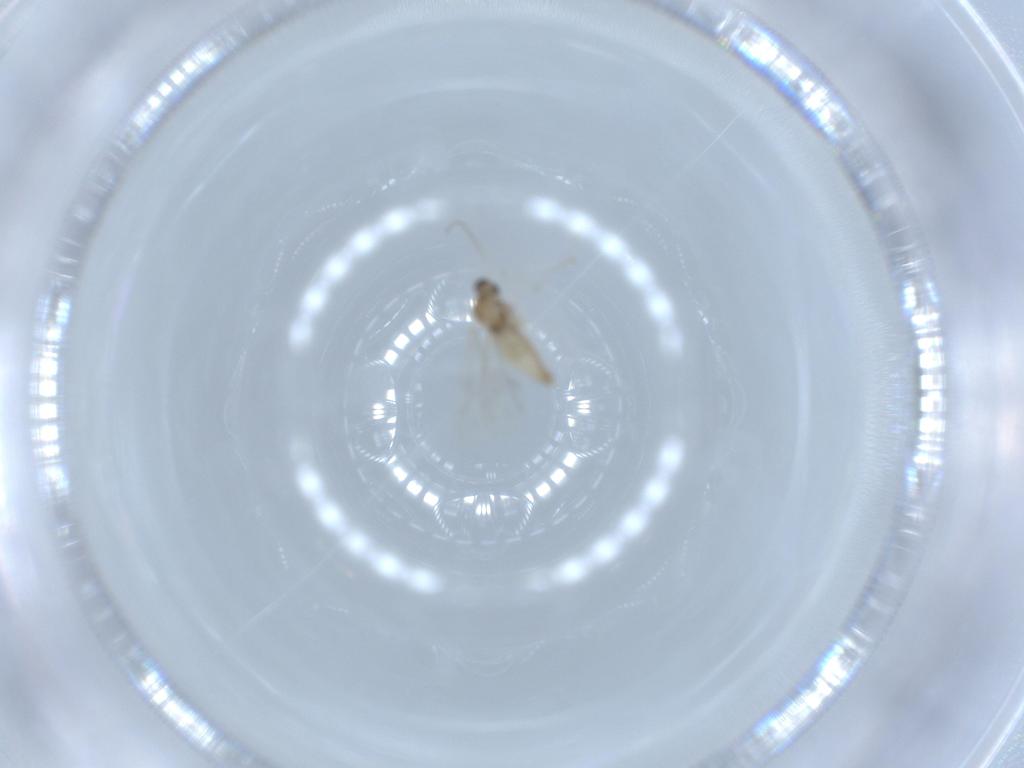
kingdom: Animalia
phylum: Arthropoda
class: Insecta
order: Diptera
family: Cecidomyiidae
